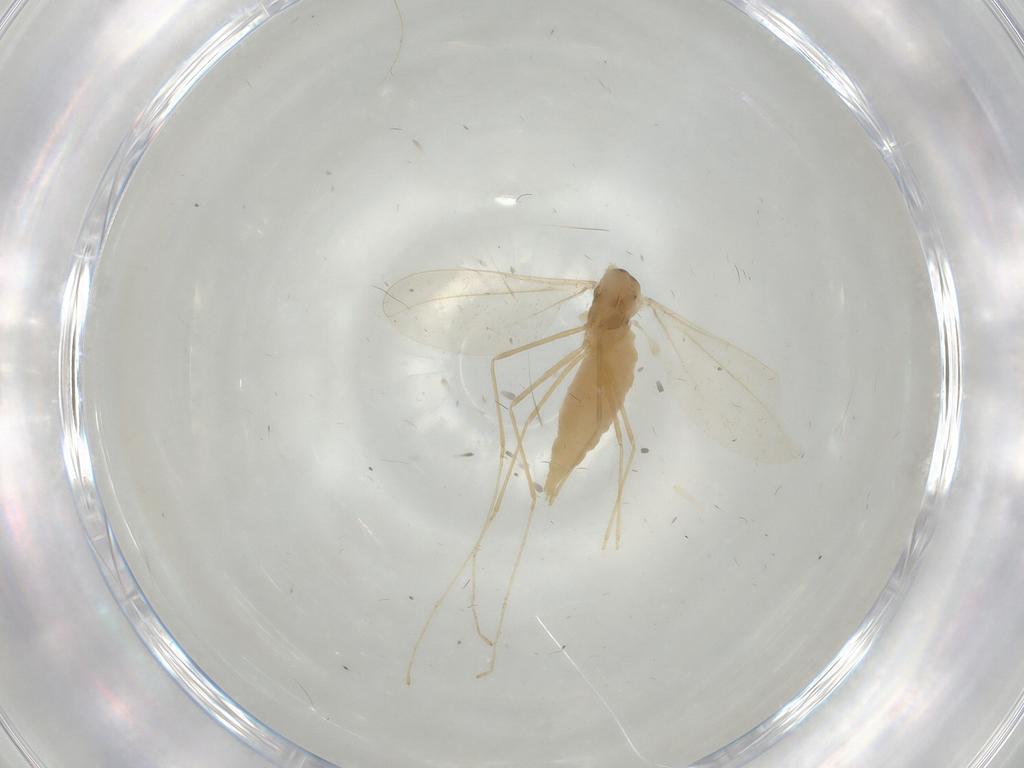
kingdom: Animalia
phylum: Arthropoda
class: Insecta
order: Diptera
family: Cecidomyiidae
